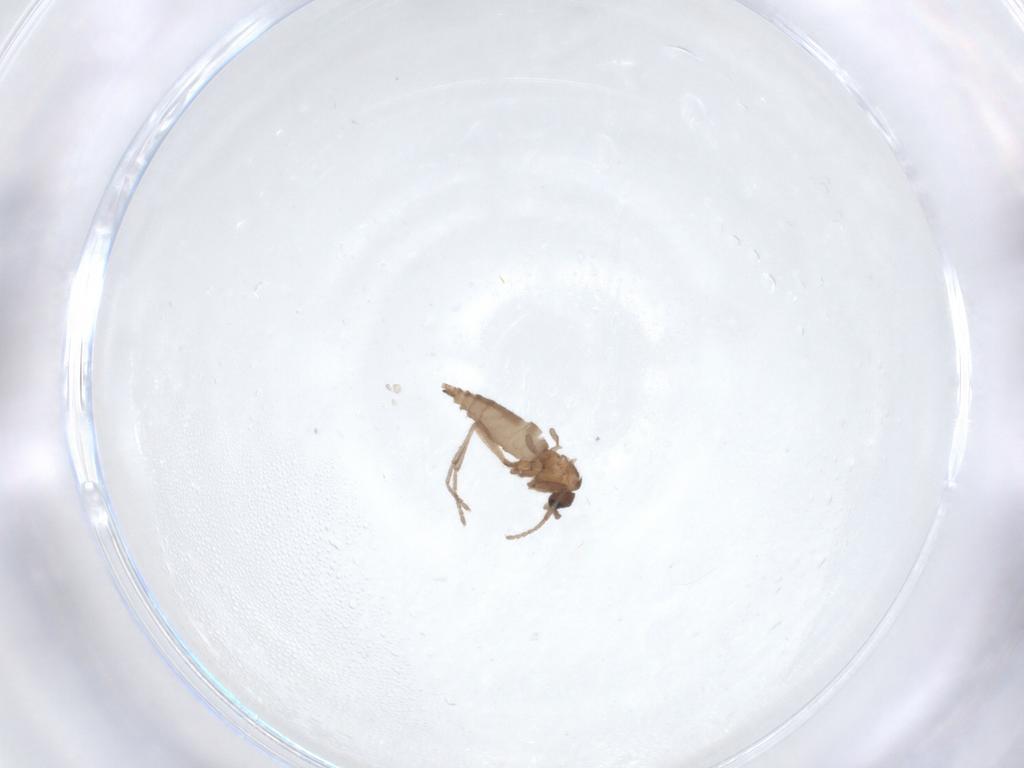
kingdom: Animalia
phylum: Arthropoda
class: Insecta
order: Diptera
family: Sciaridae
